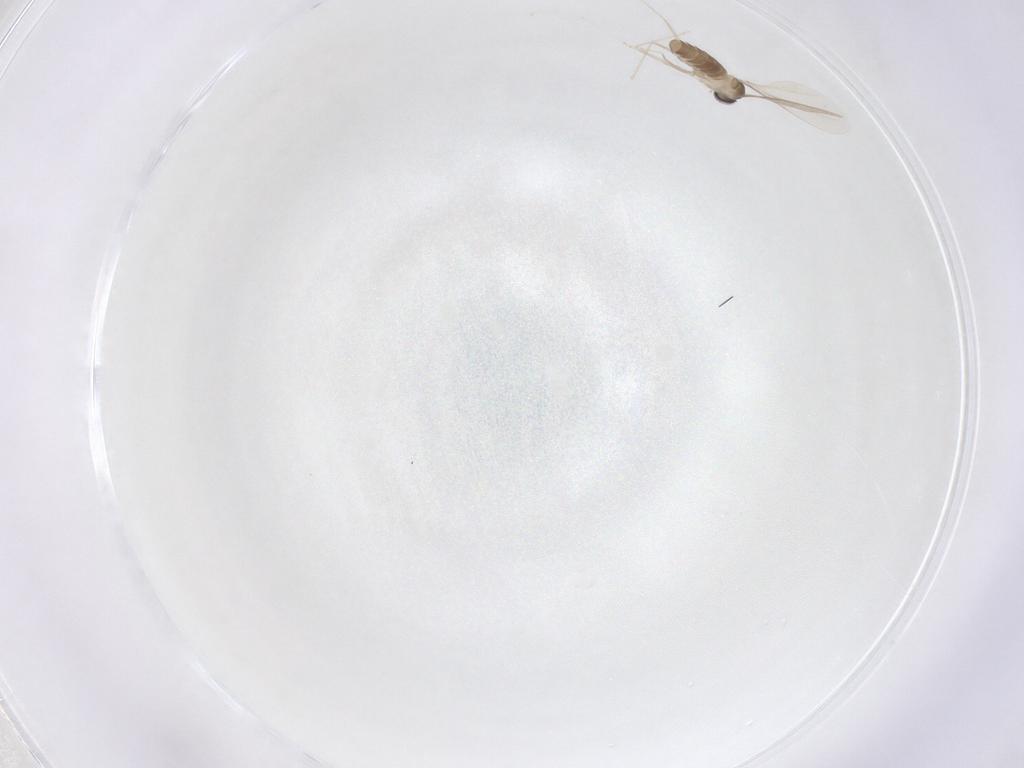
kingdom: Animalia
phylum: Arthropoda
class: Insecta
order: Diptera
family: Cecidomyiidae
